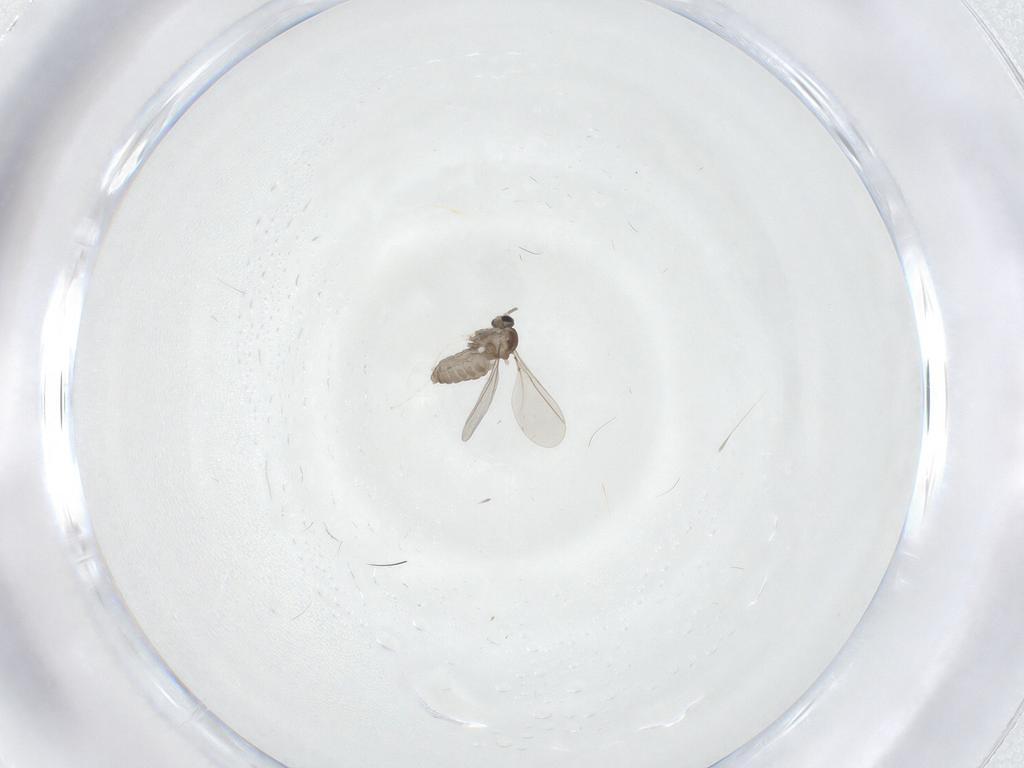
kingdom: Animalia
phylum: Arthropoda
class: Insecta
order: Diptera
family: Cecidomyiidae
